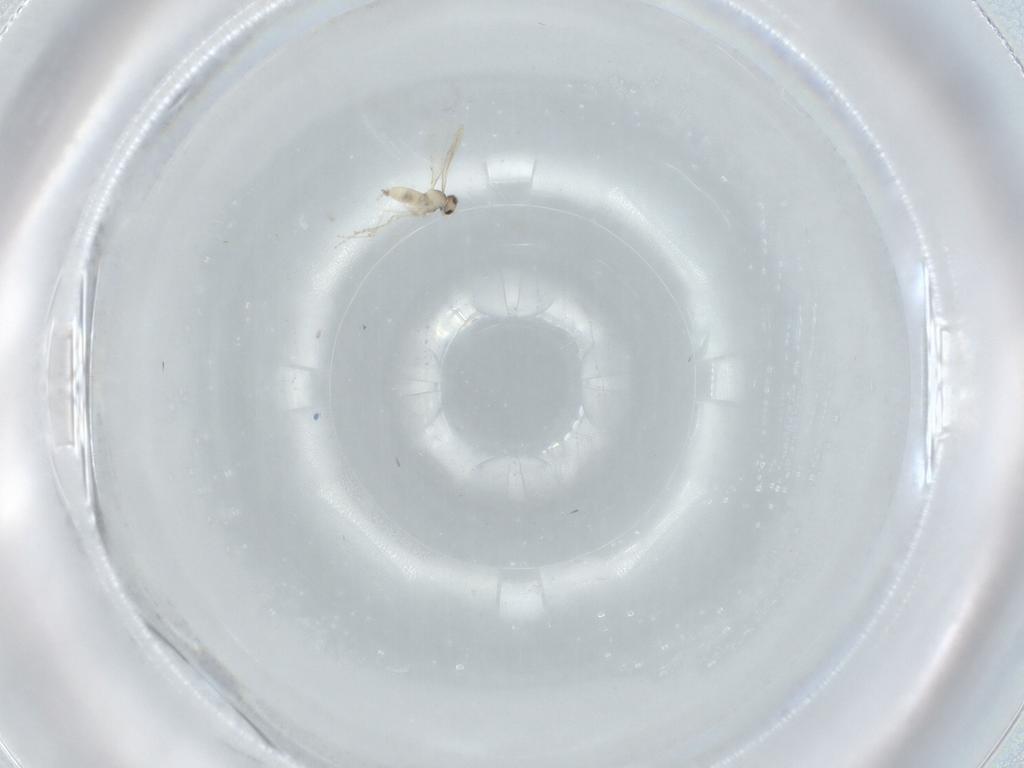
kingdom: Animalia
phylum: Arthropoda
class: Insecta
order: Diptera
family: Cecidomyiidae
